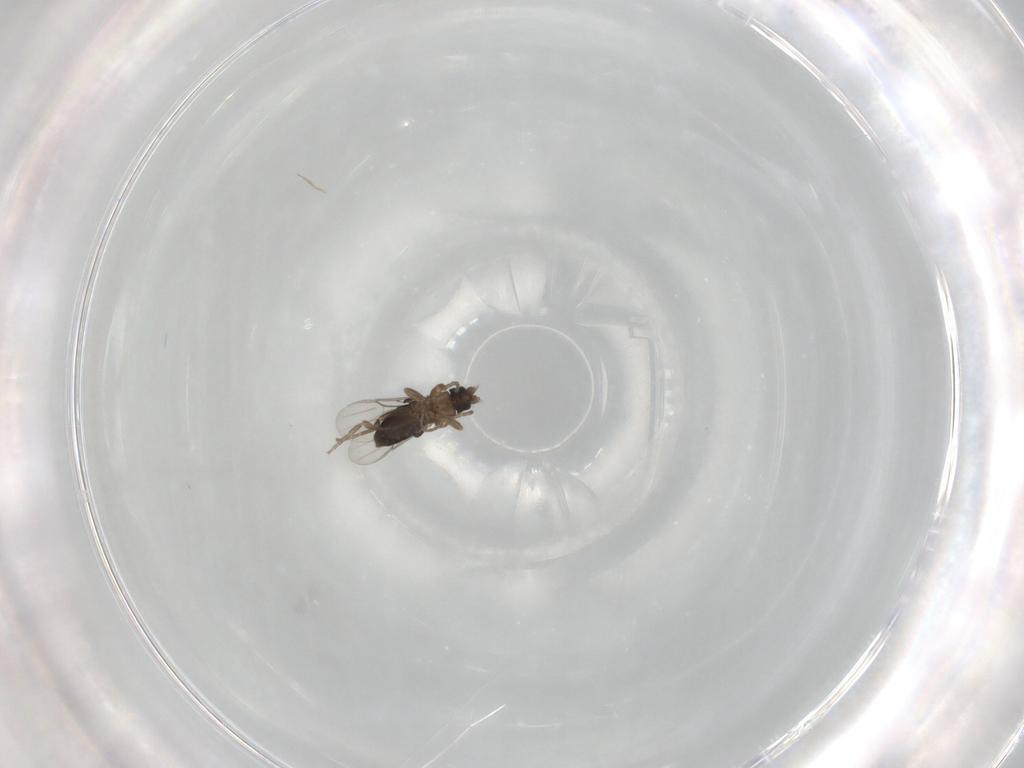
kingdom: Animalia
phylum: Arthropoda
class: Insecta
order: Diptera
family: Phoridae
